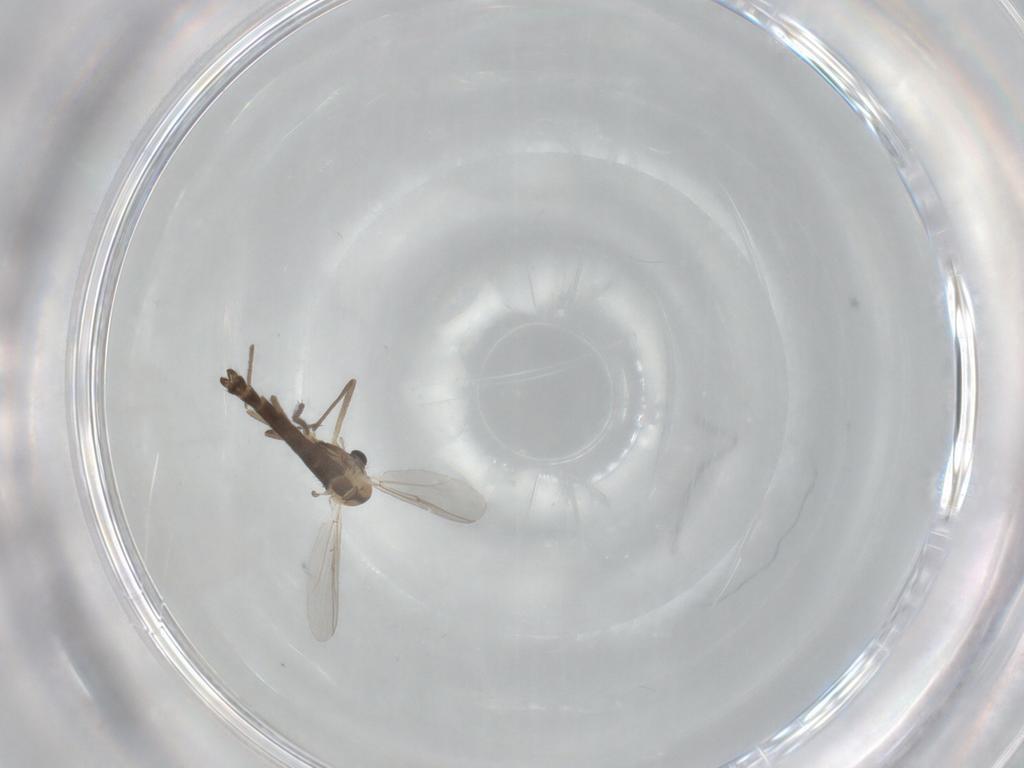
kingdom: Animalia
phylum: Arthropoda
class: Insecta
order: Diptera
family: Chironomidae
